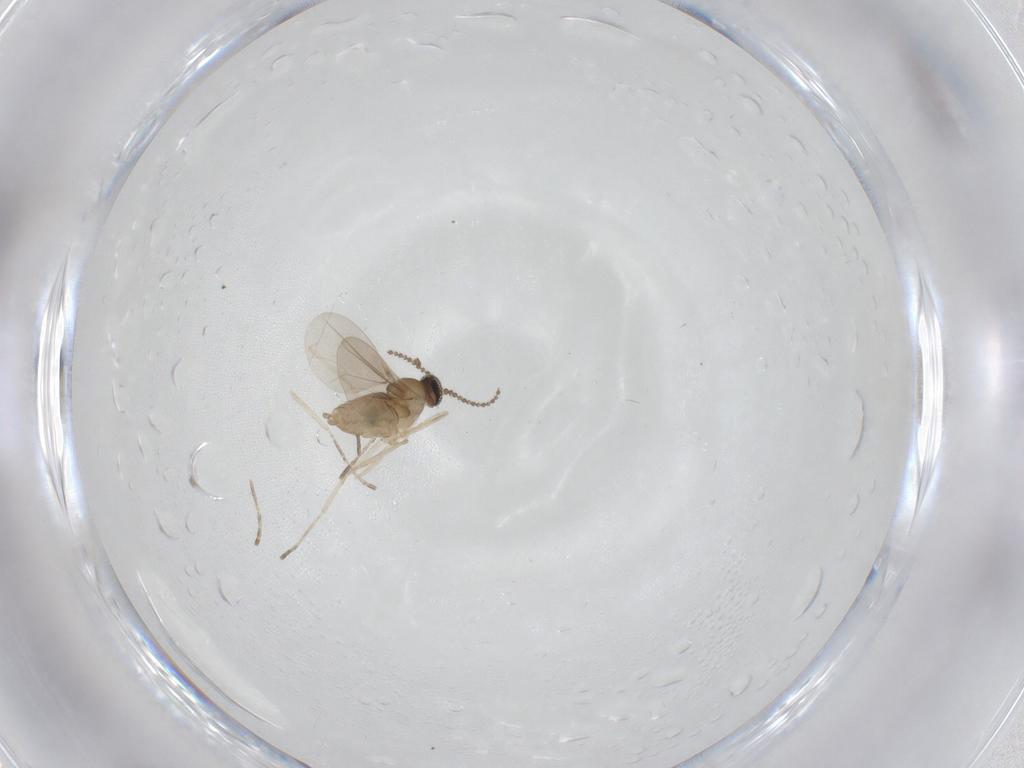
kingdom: Animalia
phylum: Arthropoda
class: Insecta
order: Diptera
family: Cecidomyiidae
